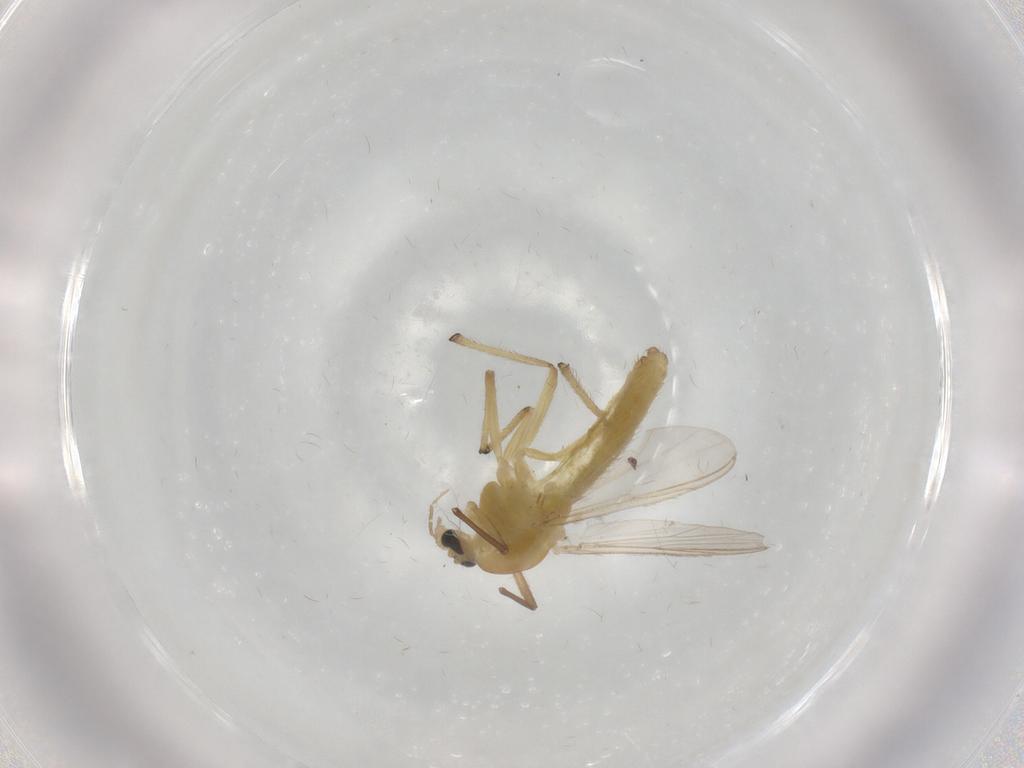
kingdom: Animalia
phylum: Arthropoda
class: Insecta
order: Diptera
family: Chironomidae
